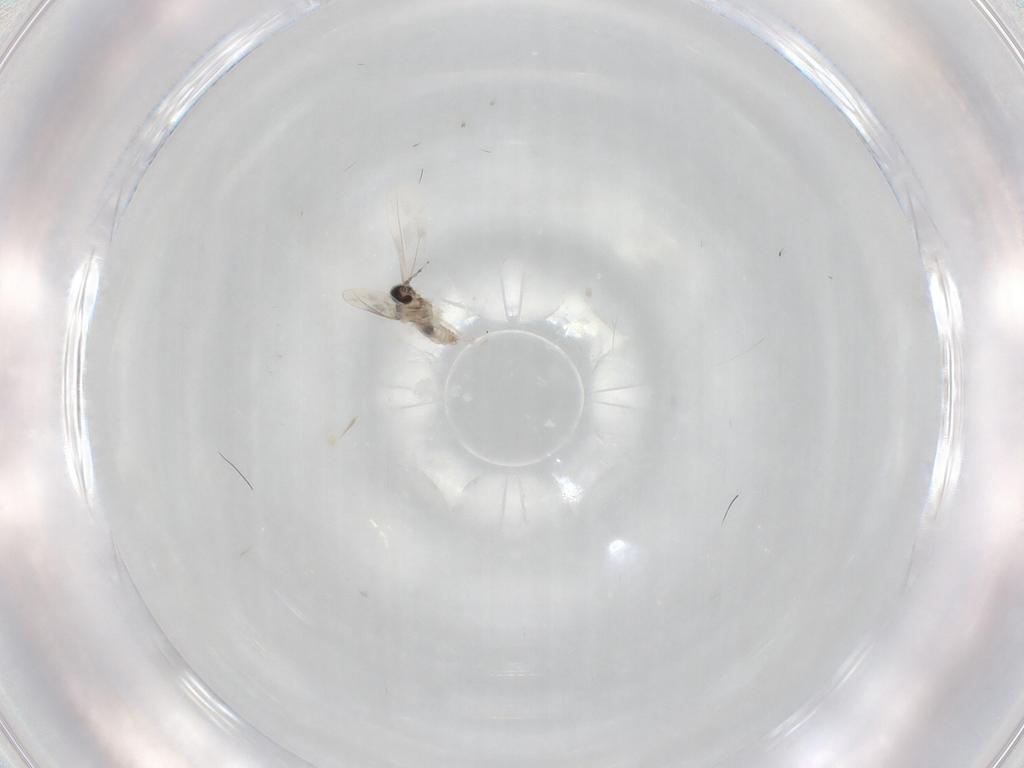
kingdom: Animalia
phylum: Arthropoda
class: Insecta
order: Diptera
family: Cecidomyiidae
